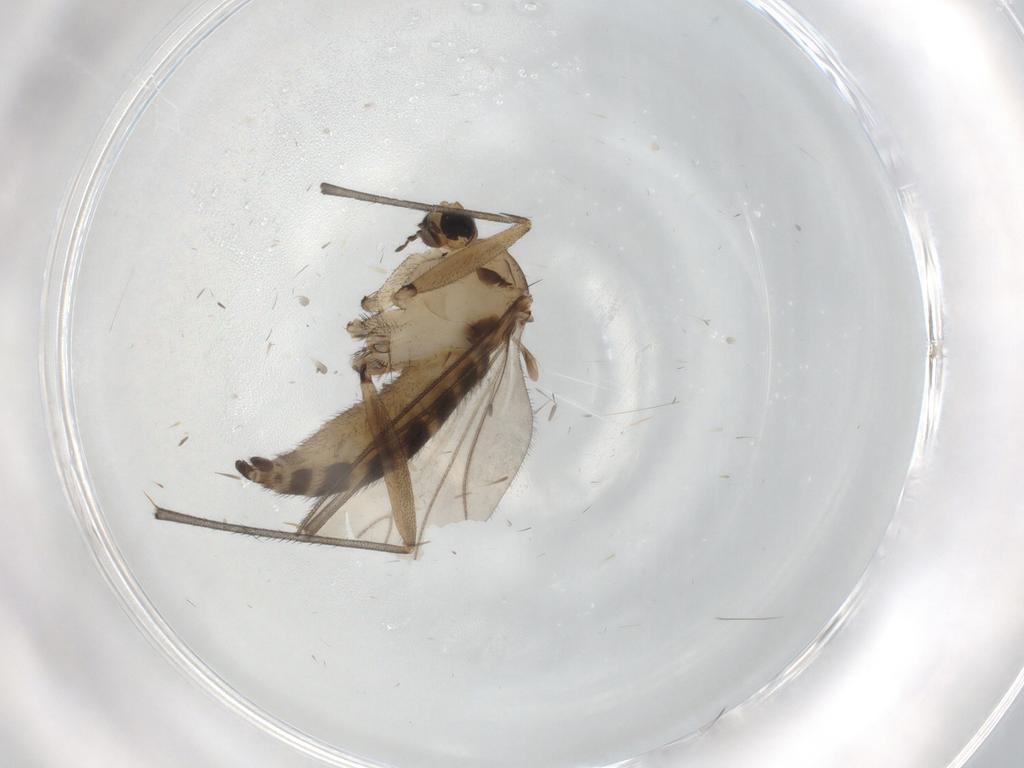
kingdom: Animalia
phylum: Arthropoda
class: Insecta
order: Diptera
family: Sciaridae
